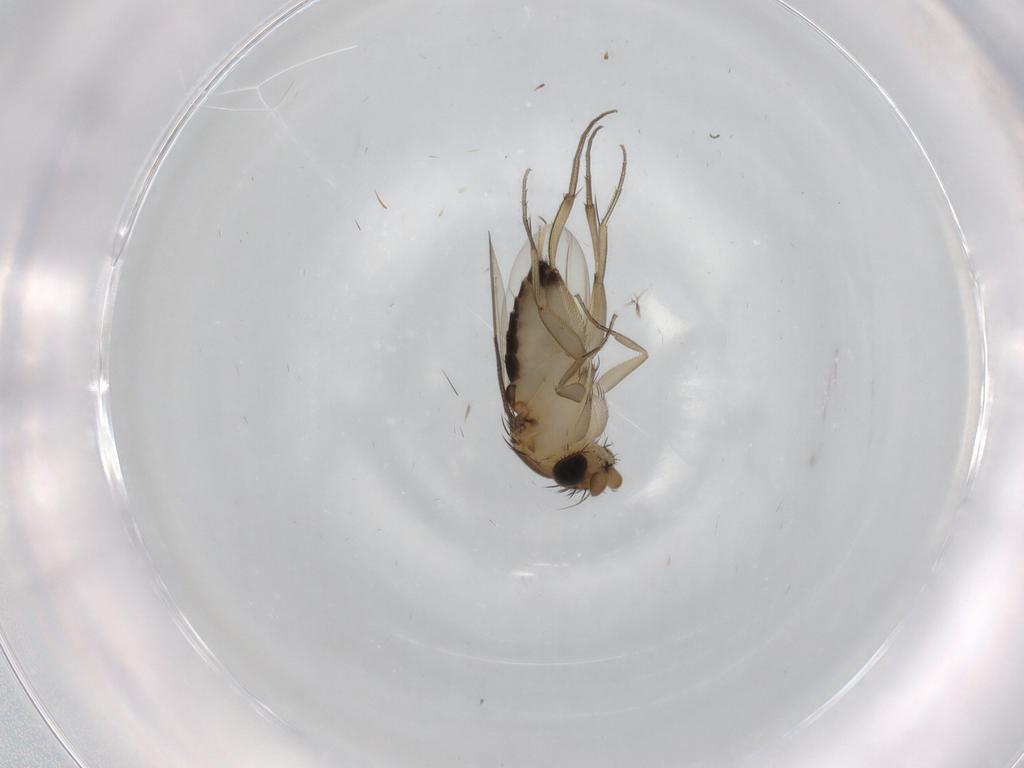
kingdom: Animalia
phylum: Arthropoda
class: Insecta
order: Diptera
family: Phoridae
